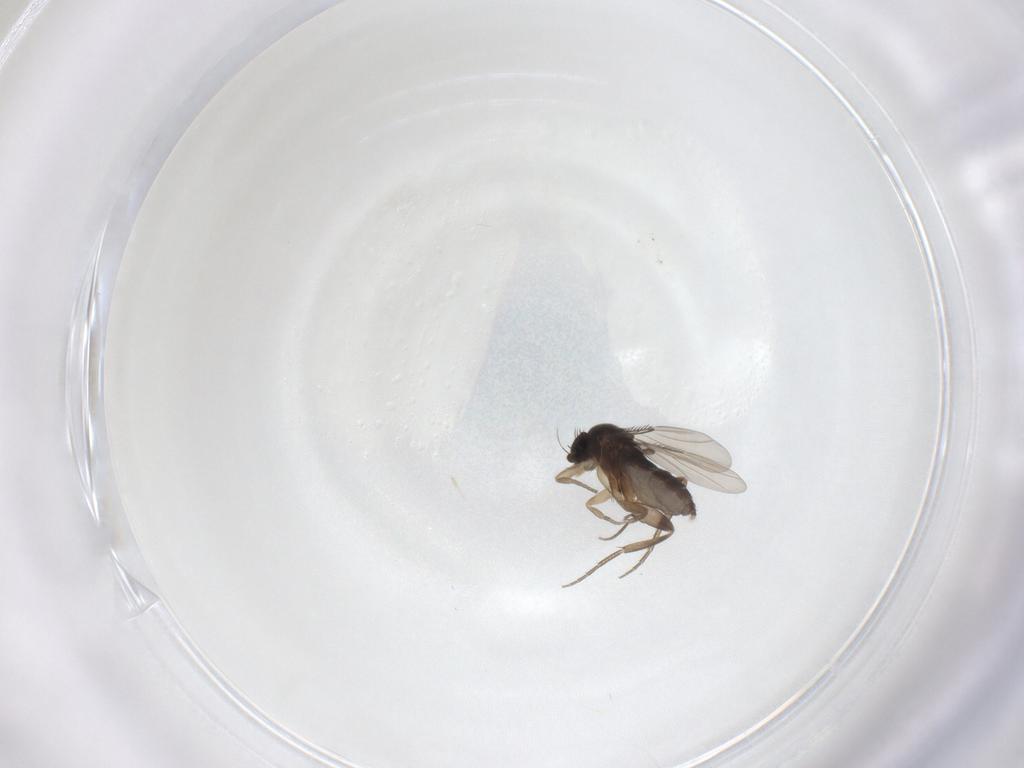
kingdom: Animalia
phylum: Arthropoda
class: Insecta
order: Diptera
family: Phoridae
